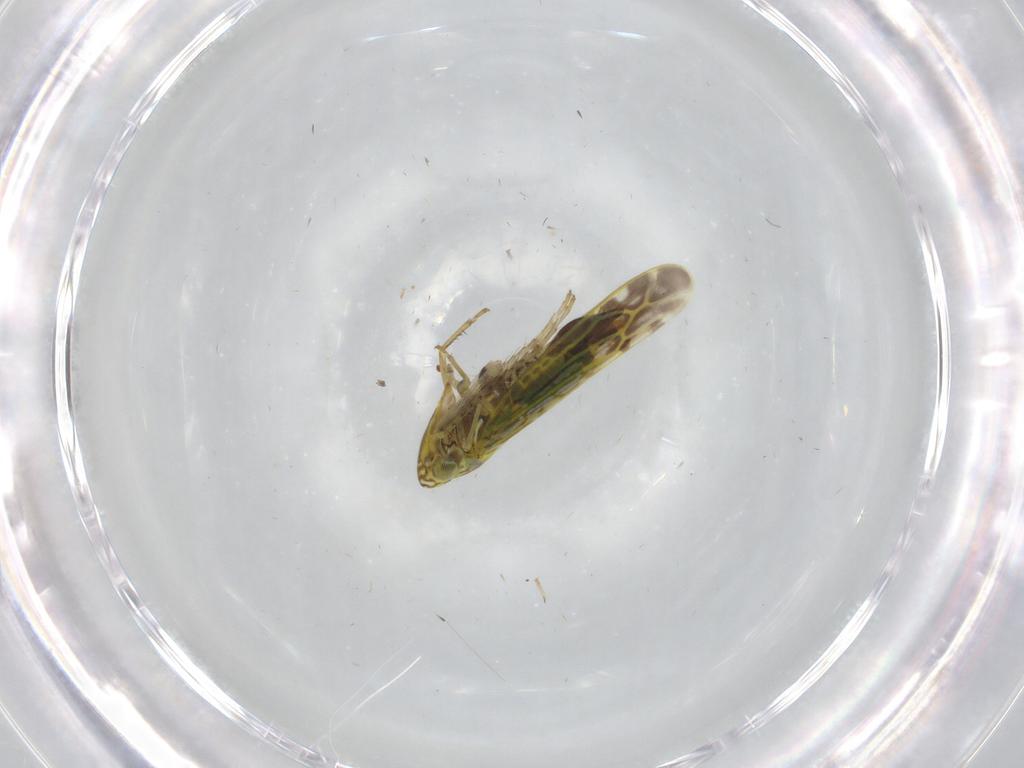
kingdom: Animalia
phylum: Arthropoda
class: Insecta
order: Hemiptera
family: Cicadellidae
